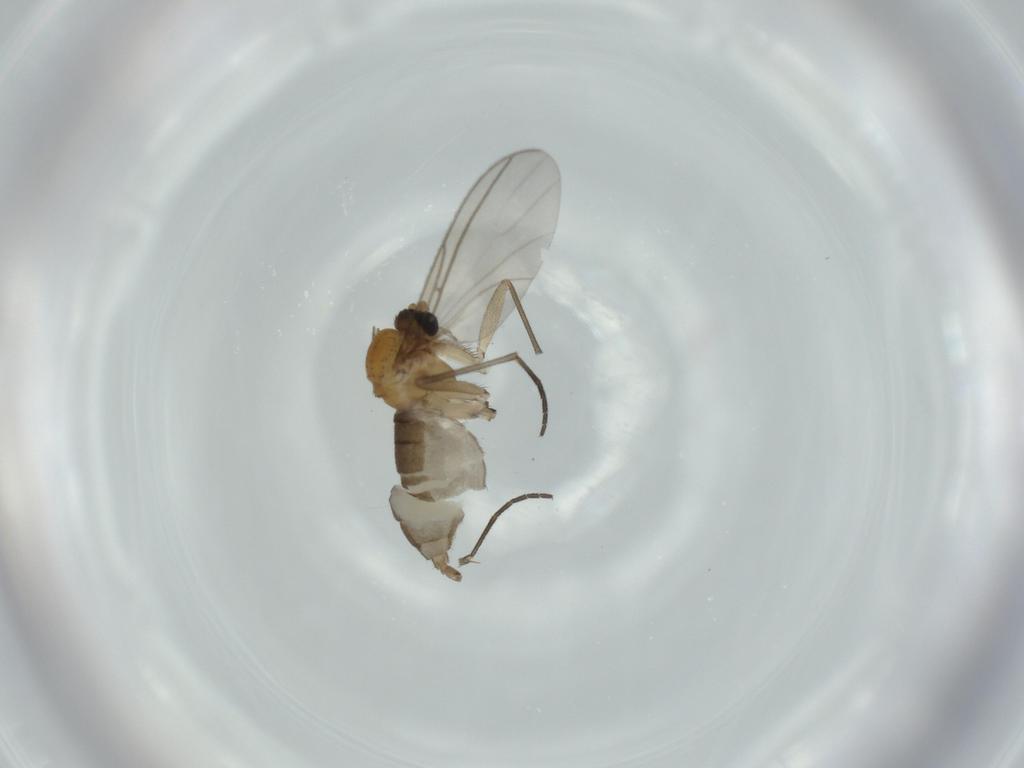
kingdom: Animalia
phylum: Arthropoda
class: Insecta
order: Diptera
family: Sciaridae
